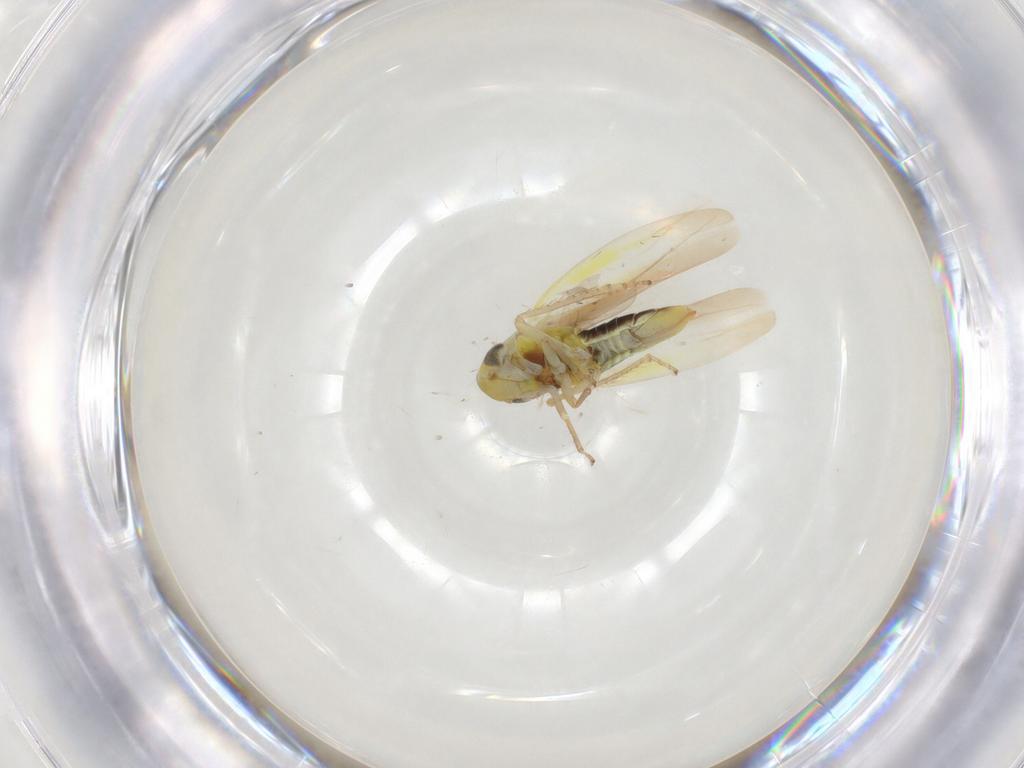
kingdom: Animalia
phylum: Arthropoda
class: Insecta
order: Hemiptera
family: Cicadellidae
